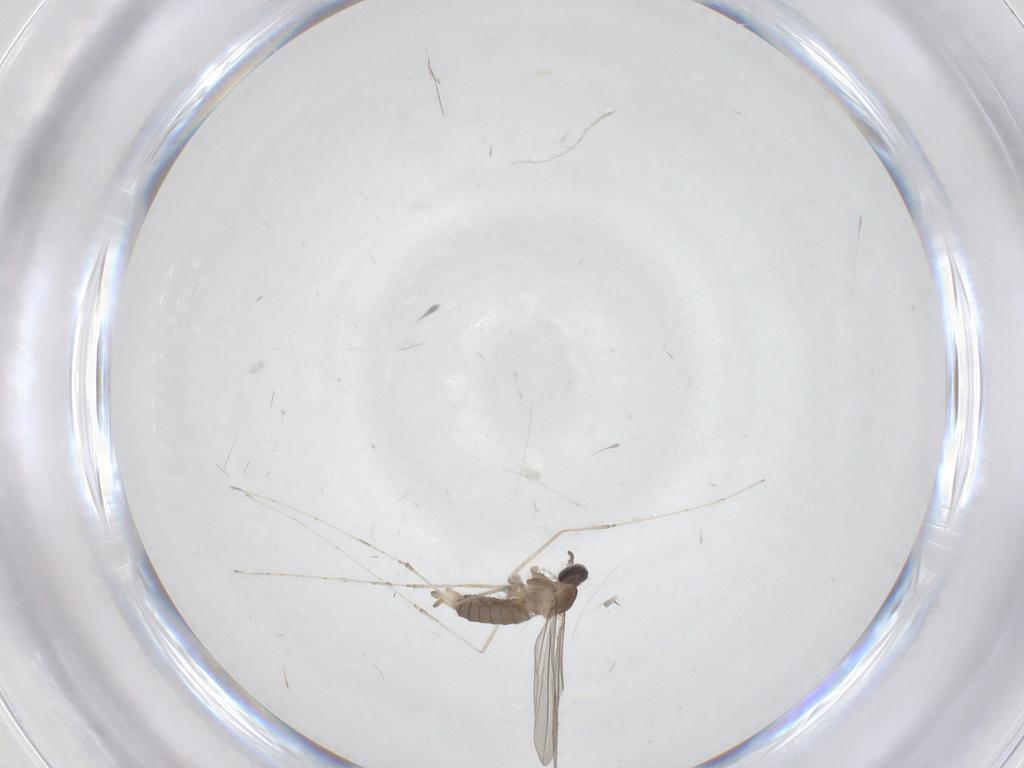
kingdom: Animalia
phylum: Arthropoda
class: Insecta
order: Diptera
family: Cecidomyiidae
